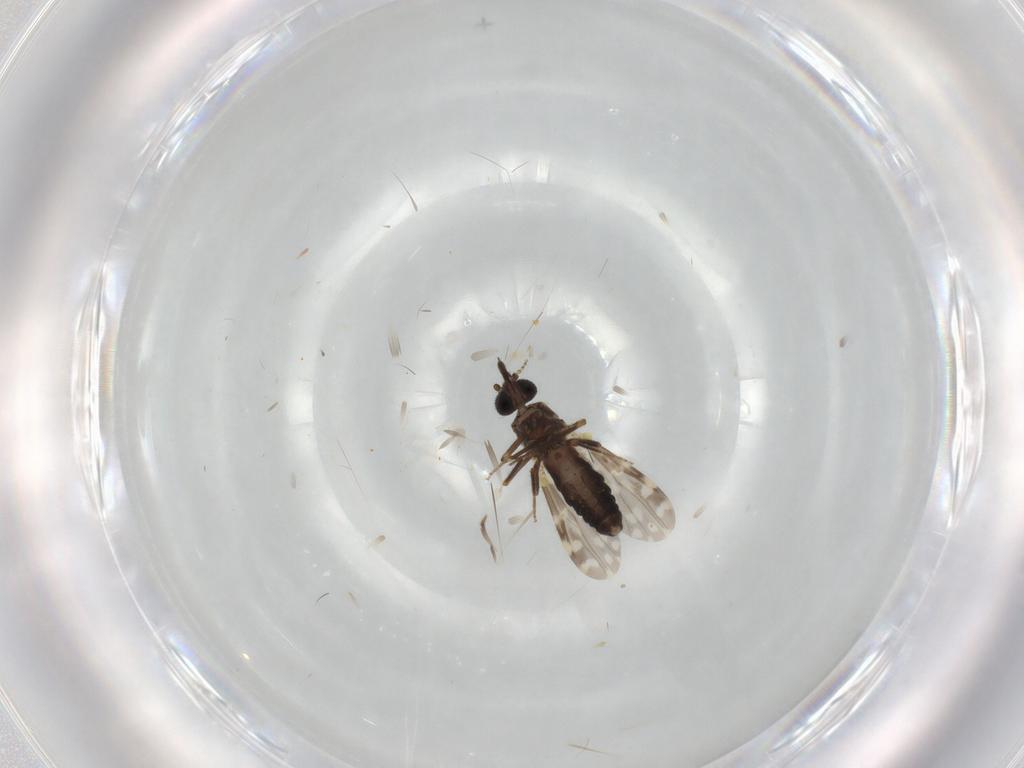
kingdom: Animalia
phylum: Arthropoda
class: Insecta
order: Diptera
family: Ceratopogonidae
